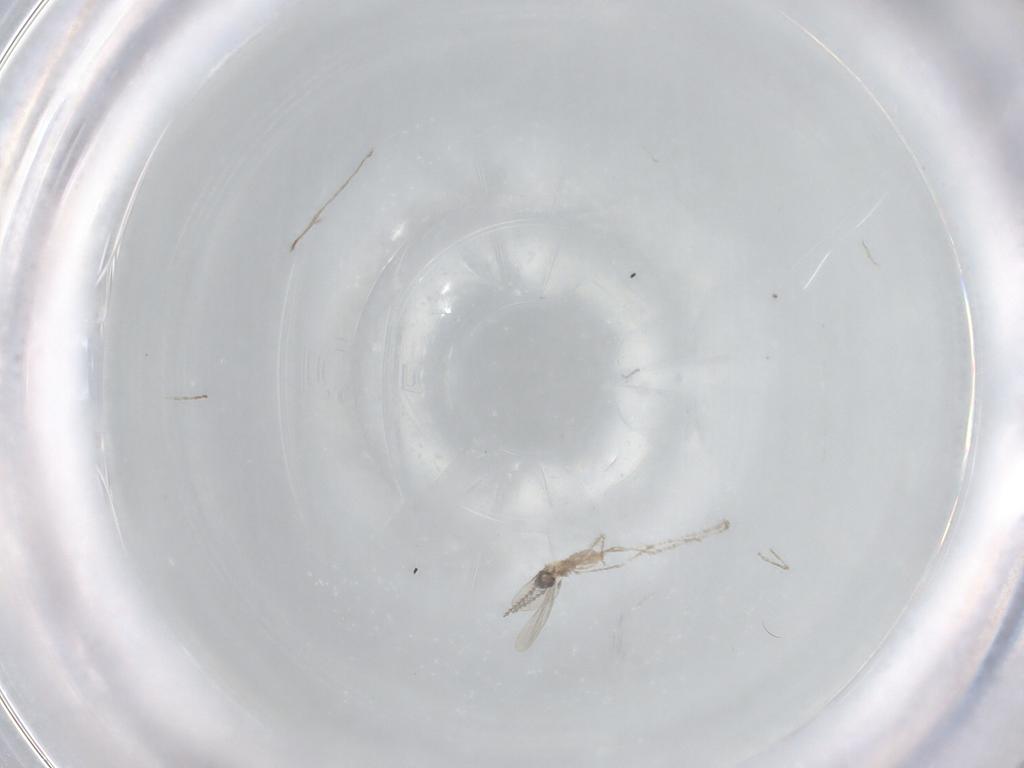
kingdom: Animalia
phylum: Arthropoda
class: Insecta
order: Diptera
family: Cecidomyiidae
